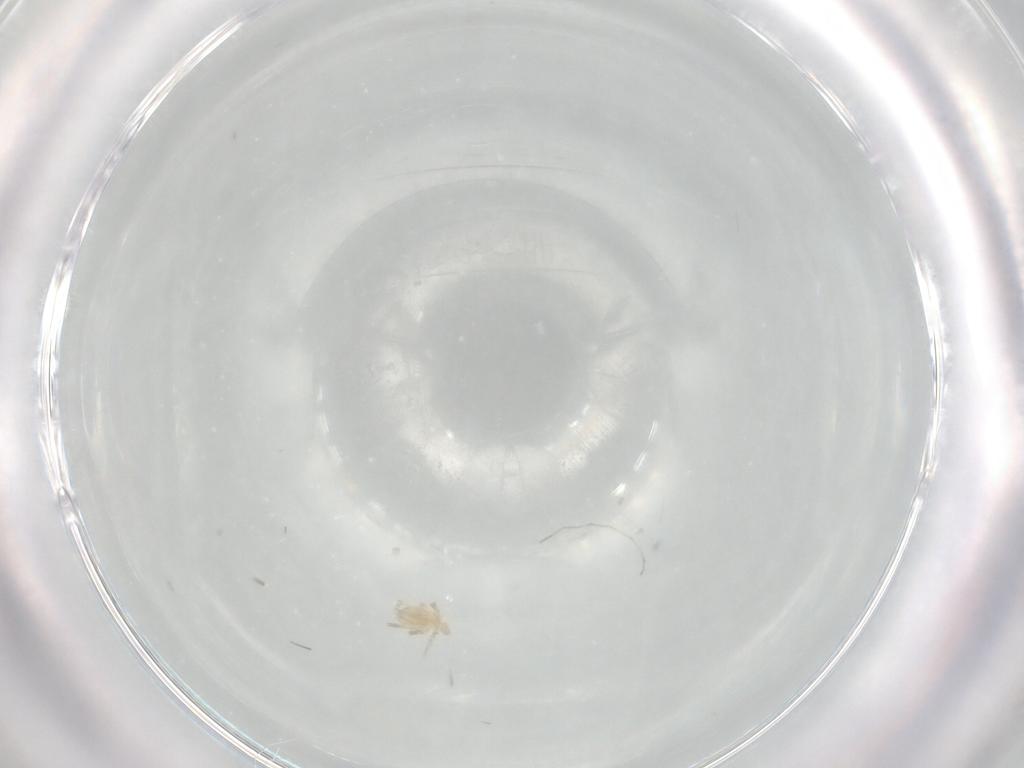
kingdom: Animalia
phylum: Arthropoda
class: Arachnida
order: Trombidiformes
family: Erythraeidae
